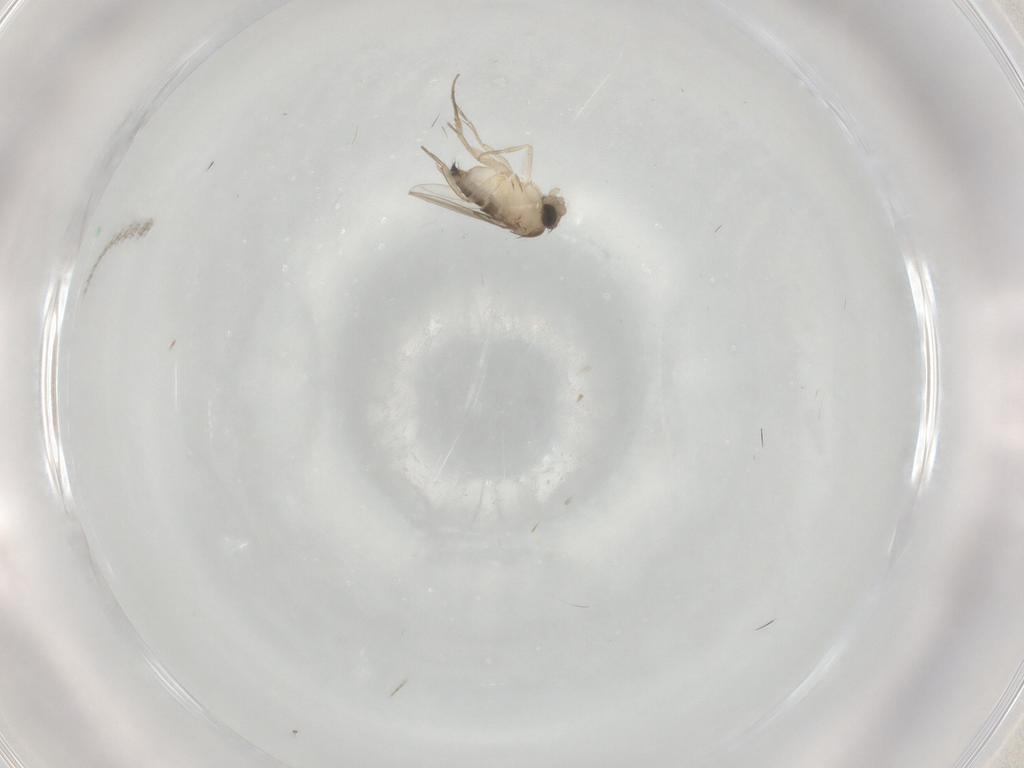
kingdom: Animalia
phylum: Arthropoda
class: Insecta
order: Diptera
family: Phoridae
